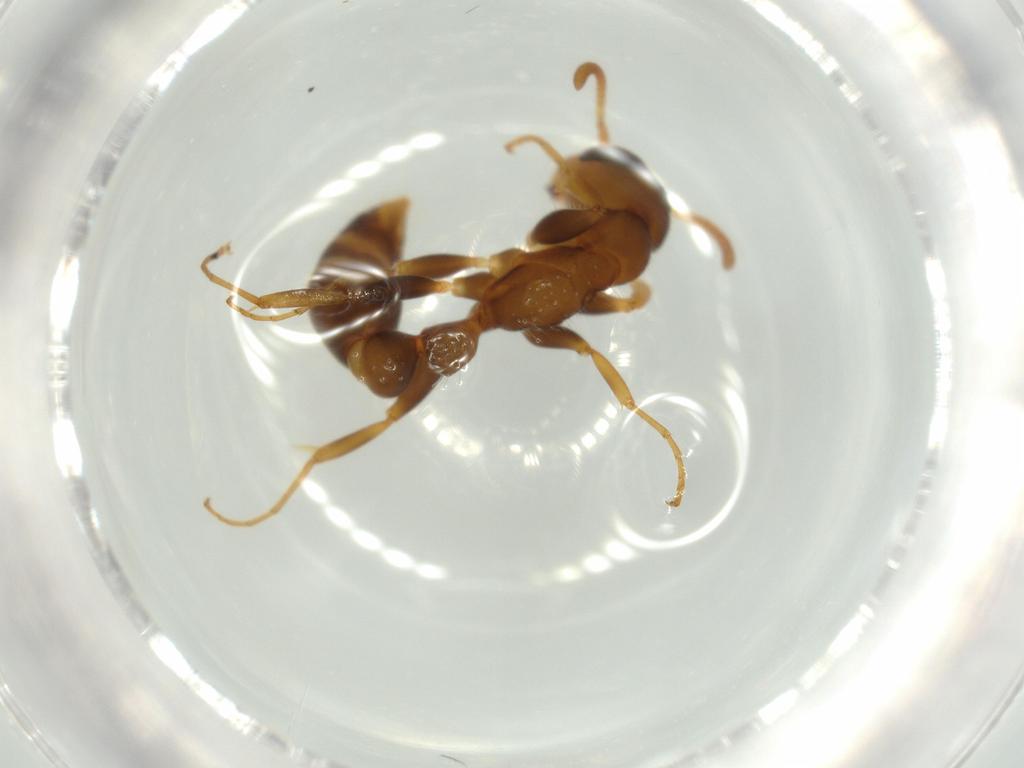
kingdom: Animalia
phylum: Arthropoda
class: Insecta
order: Hymenoptera
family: Formicidae
